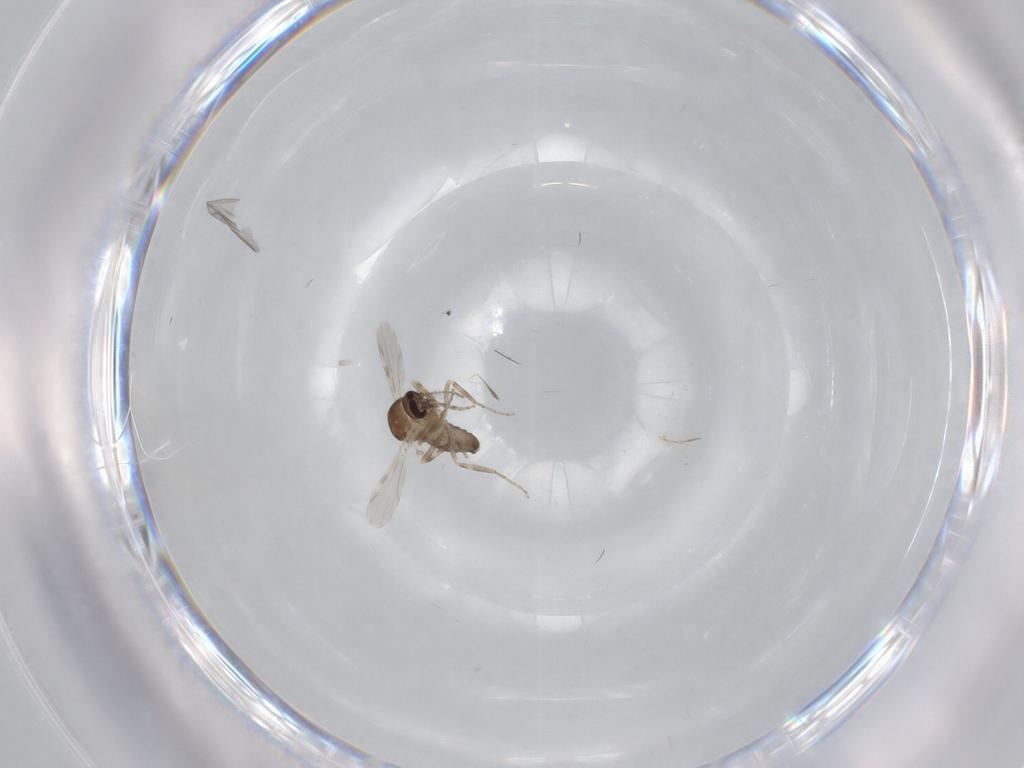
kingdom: Animalia
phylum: Arthropoda
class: Insecta
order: Diptera
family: Ceratopogonidae
